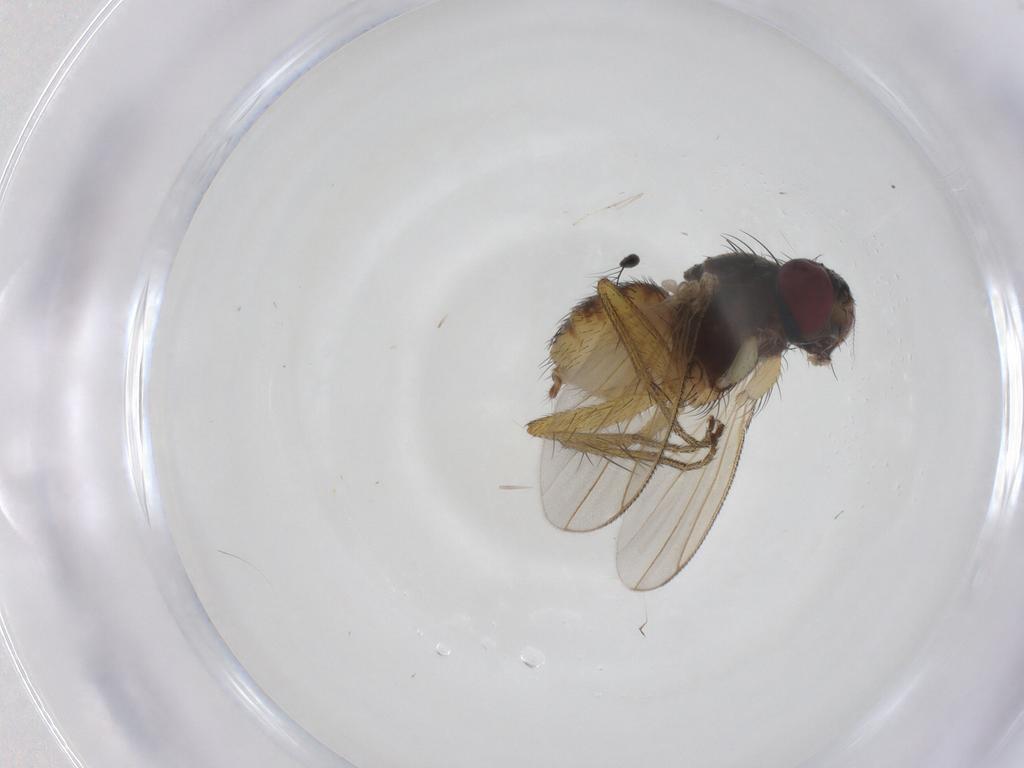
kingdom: Animalia
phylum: Arthropoda
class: Insecta
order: Diptera
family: Muscidae
